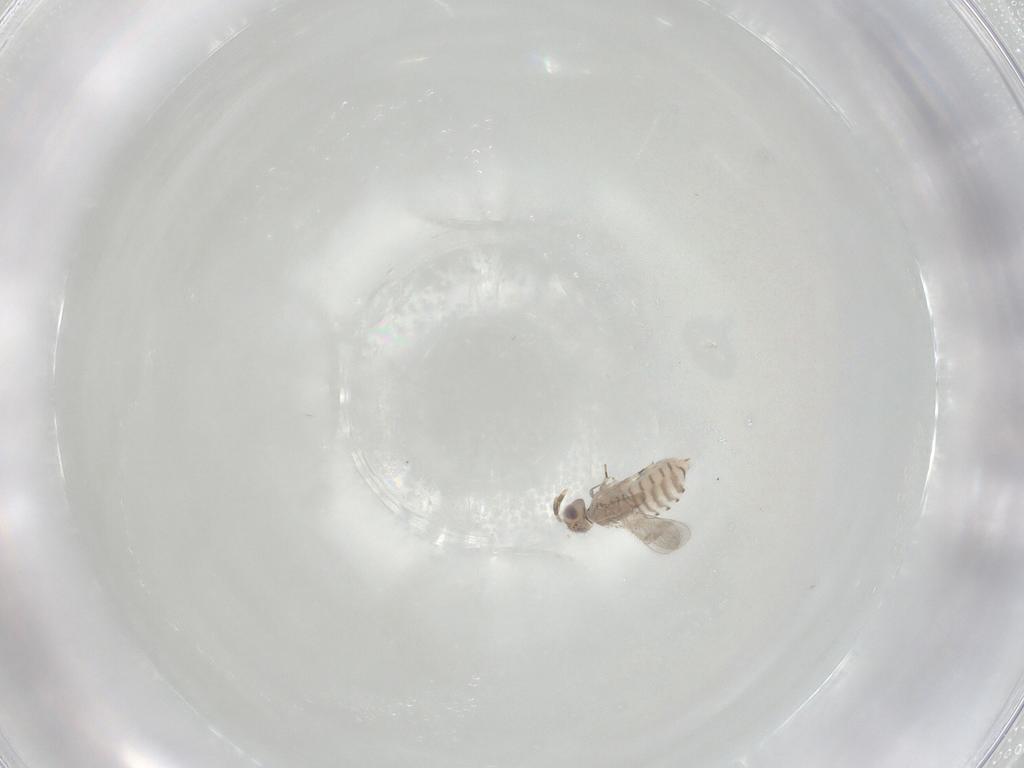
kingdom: Animalia
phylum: Arthropoda
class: Insecta
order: Hymenoptera
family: Aphelinidae
